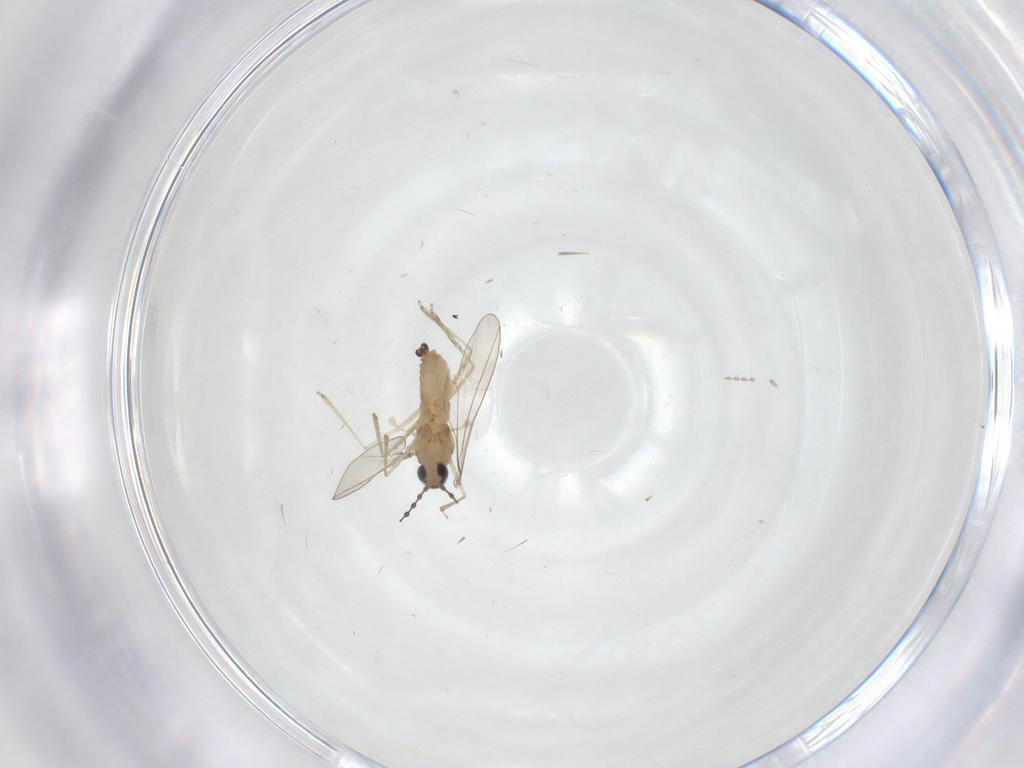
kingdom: Animalia
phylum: Arthropoda
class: Insecta
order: Diptera
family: Cecidomyiidae
